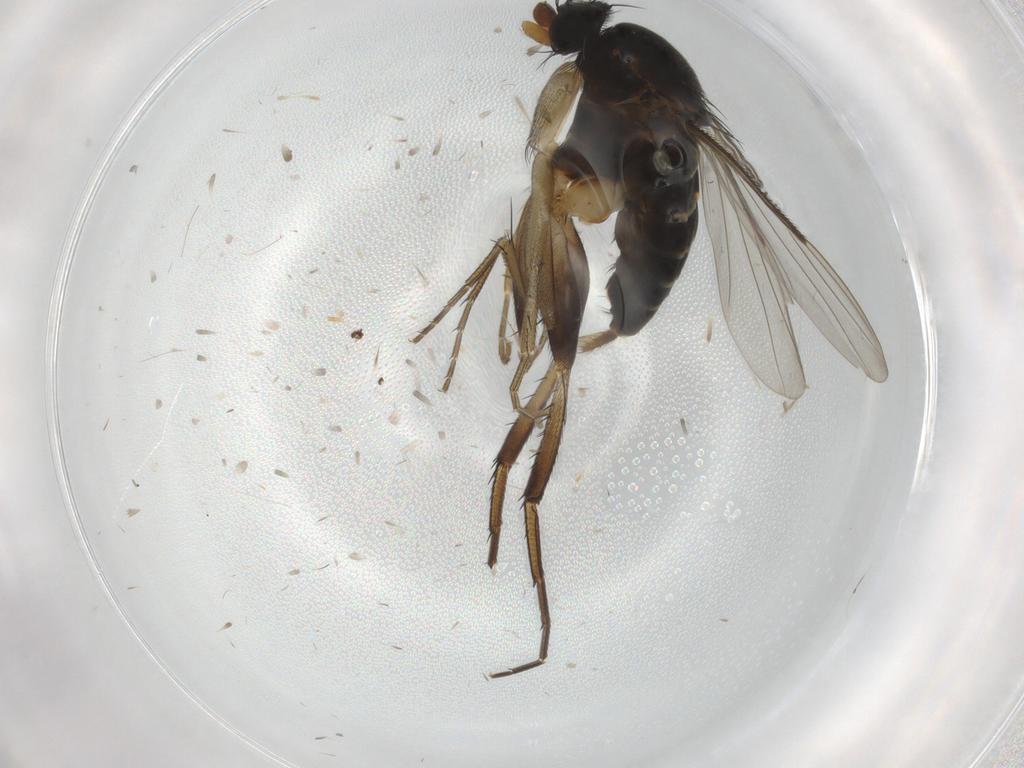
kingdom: Animalia
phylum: Arthropoda
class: Insecta
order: Diptera
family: Phoridae
